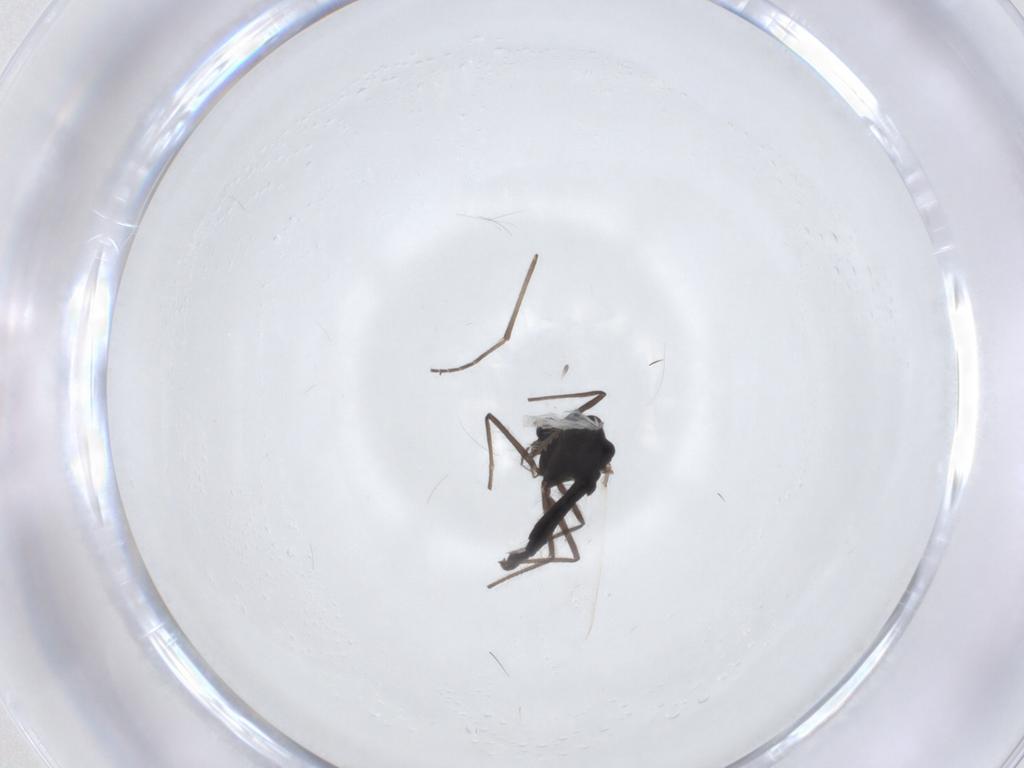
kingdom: Animalia
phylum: Arthropoda
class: Insecta
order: Diptera
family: Chironomidae
